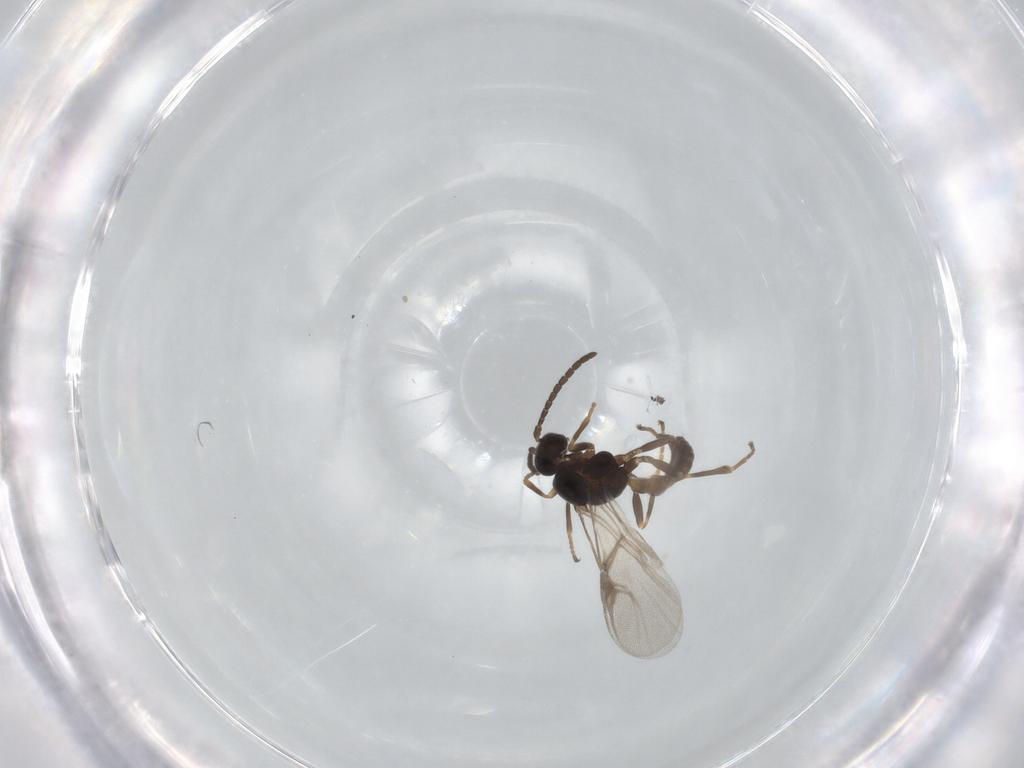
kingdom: Animalia
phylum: Arthropoda
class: Insecta
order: Hymenoptera
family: Braconidae
